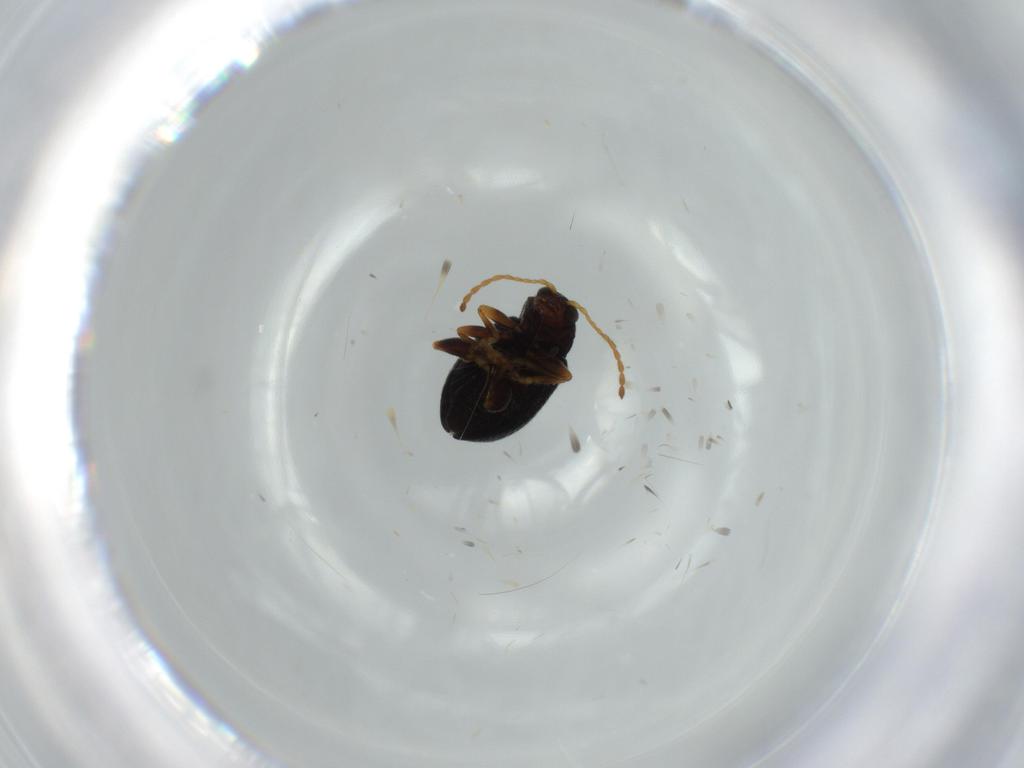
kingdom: Animalia
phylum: Arthropoda
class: Insecta
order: Coleoptera
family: Chrysomelidae
